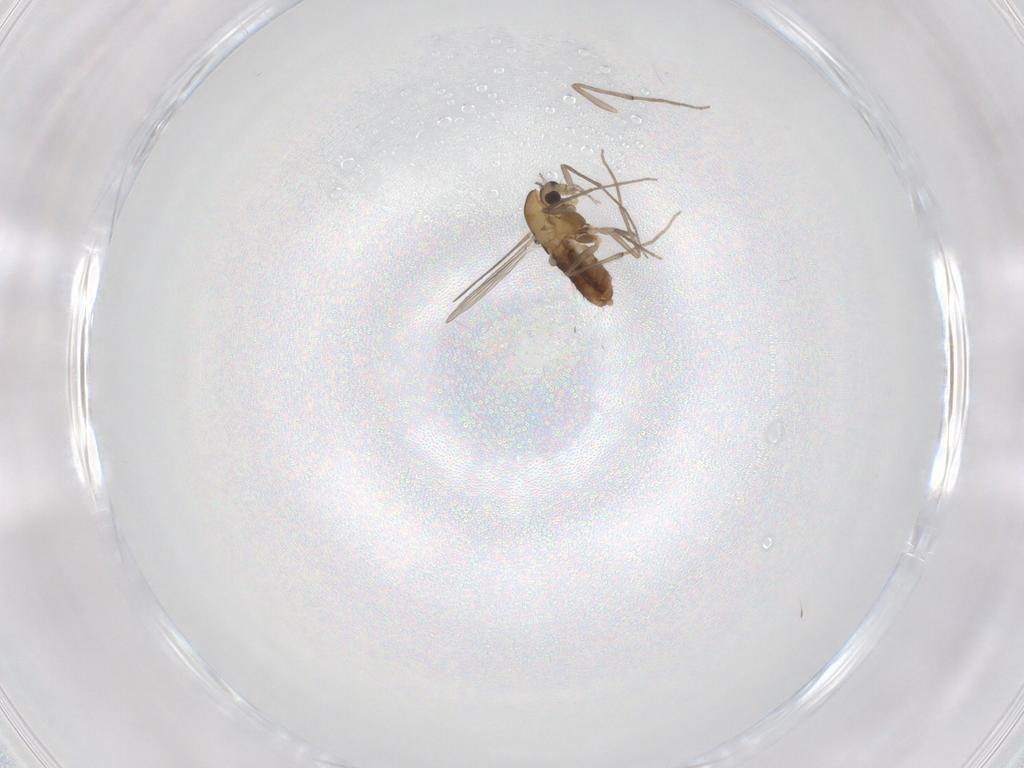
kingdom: Animalia
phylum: Arthropoda
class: Insecta
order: Diptera
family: Chironomidae
